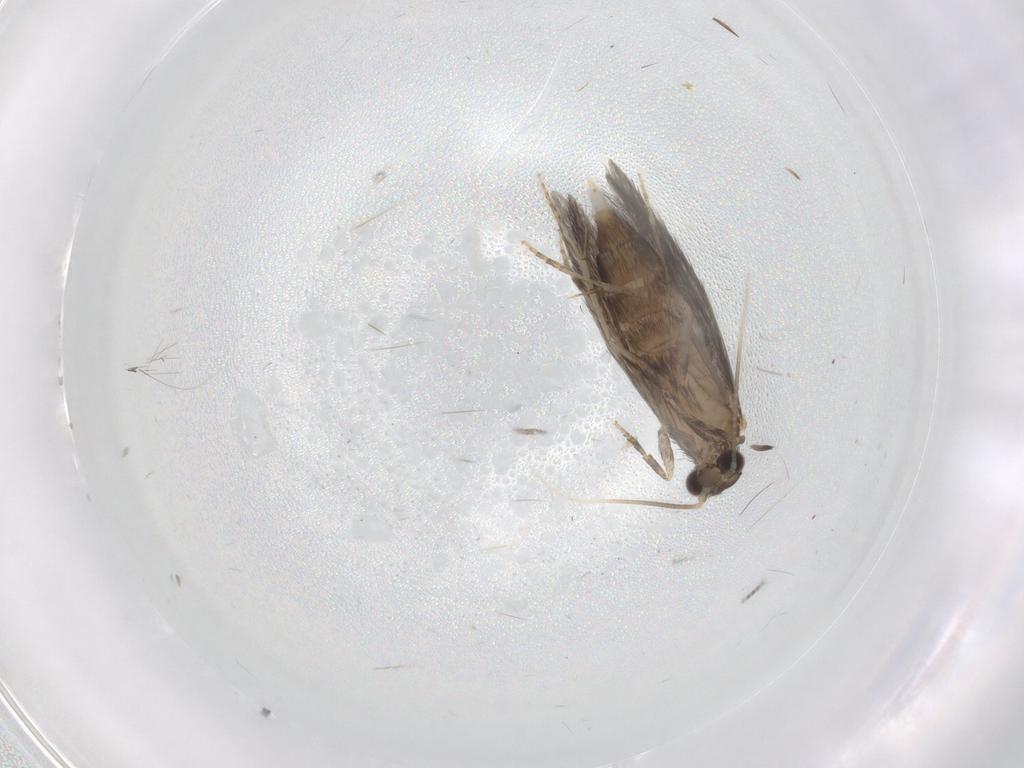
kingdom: Animalia
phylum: Arthropoda
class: Insecta
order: Trichoptera
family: Hydroptilidae
